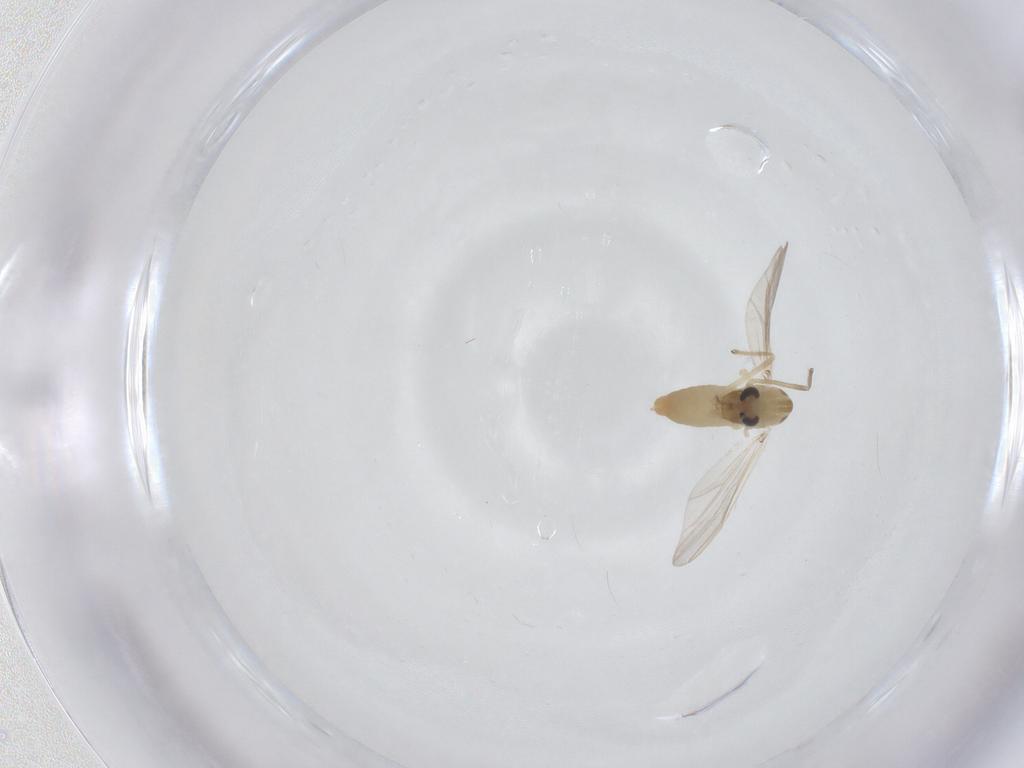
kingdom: Animalia
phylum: Arthropoda
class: Insecta
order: Diptera
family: Chironomidae
